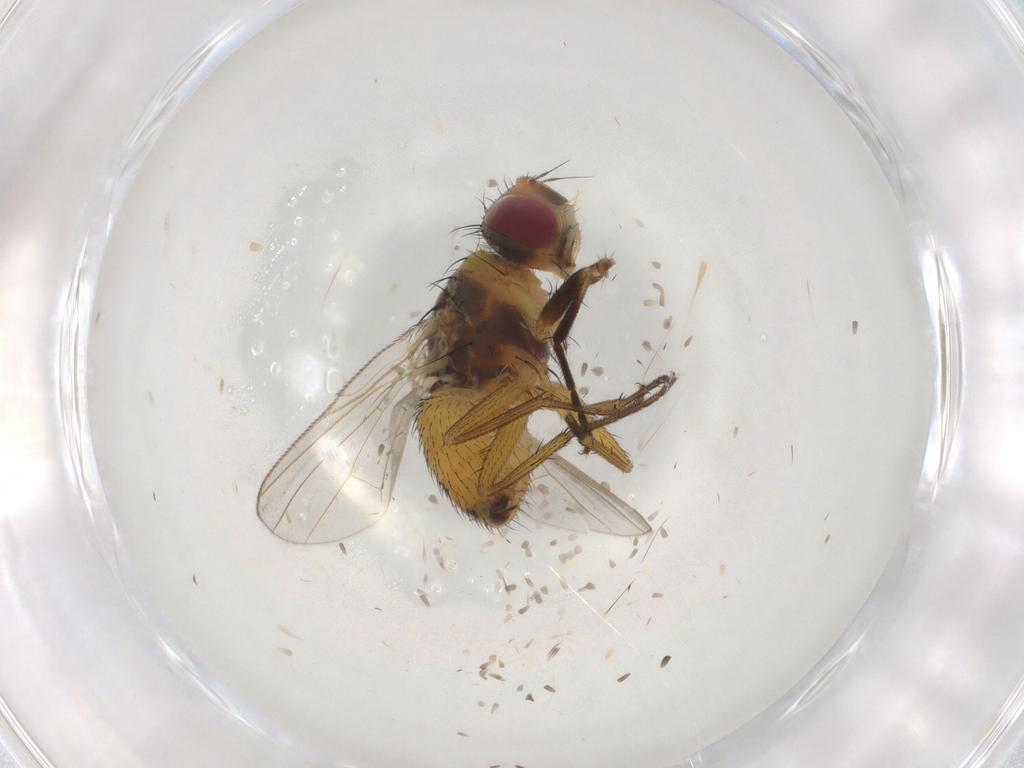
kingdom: Animalia
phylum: Arthropoda
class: Insecta
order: Diptera
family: Muscidae
